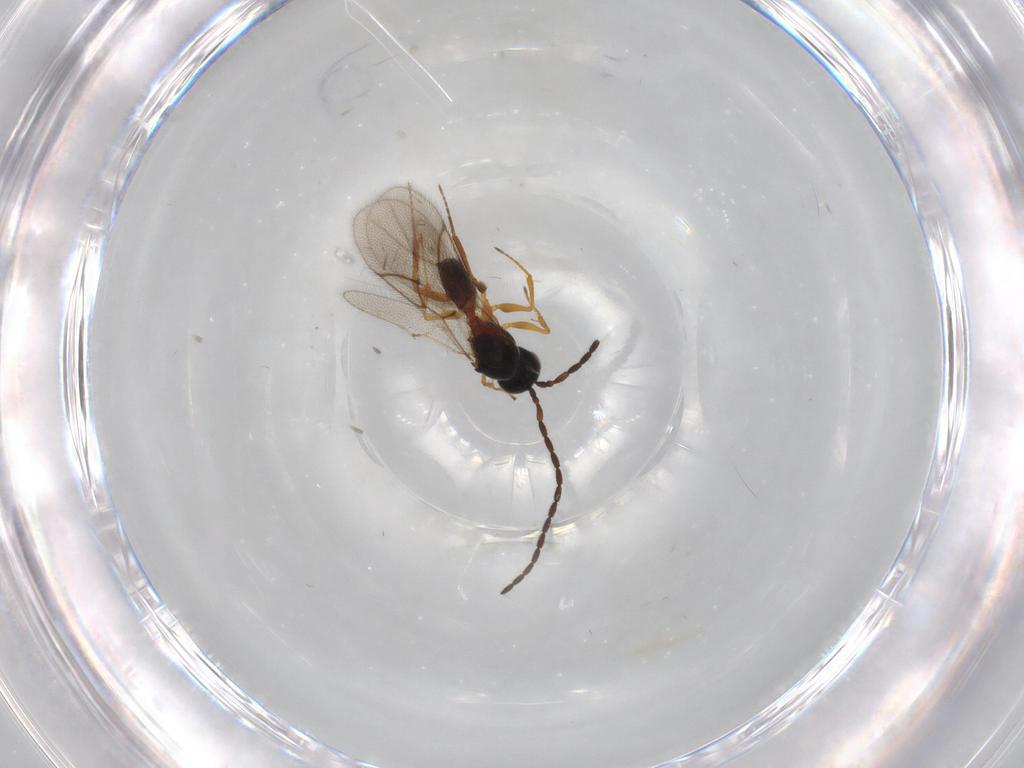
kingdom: Animalia
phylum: Arthropoda
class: Insecta
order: Hymenoptera
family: Figitidae
